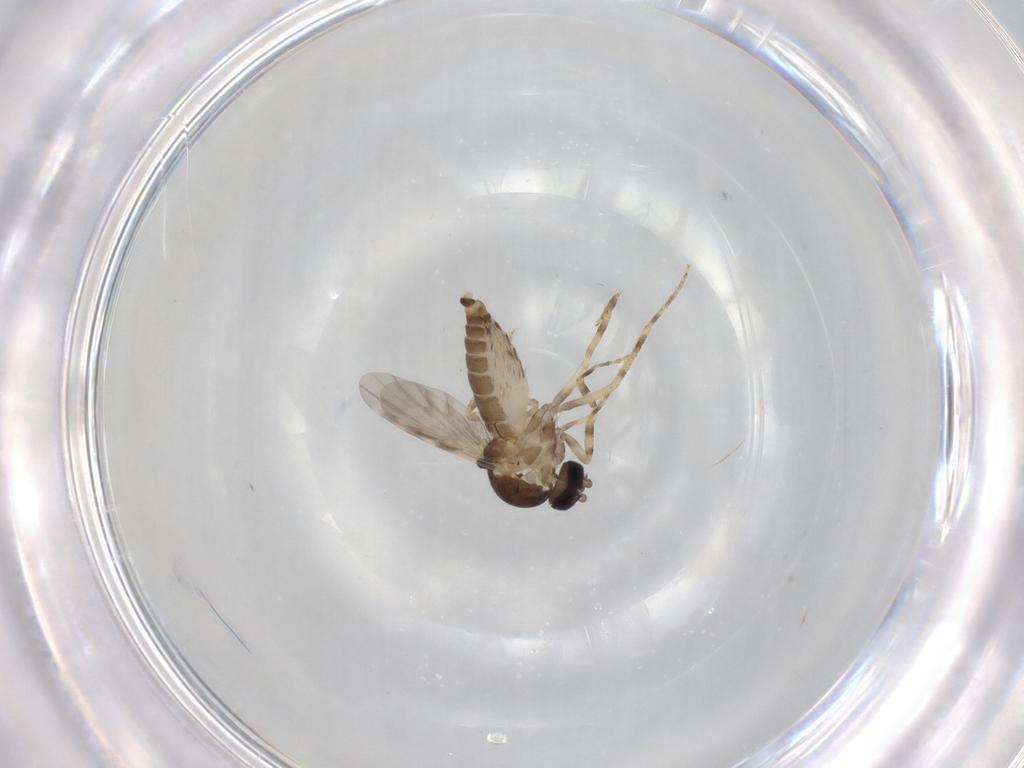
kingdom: Animalia
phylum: Arthropoda
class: Insecta
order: Diptera
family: Ceratopogonidae
